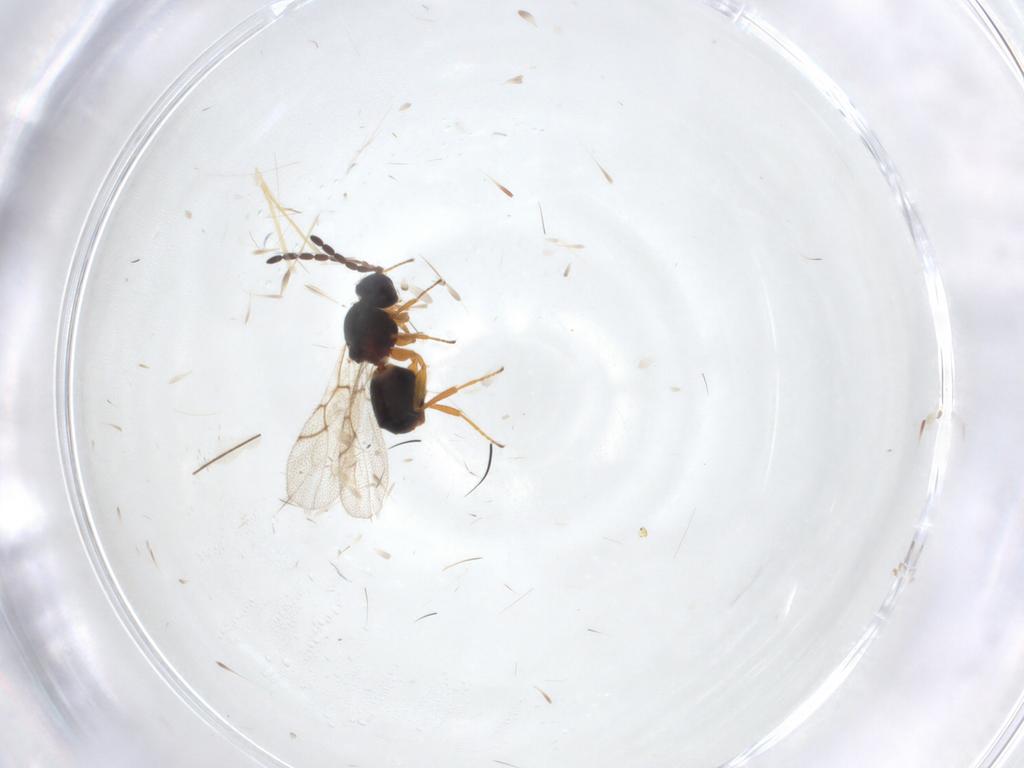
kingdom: Animalia
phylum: Arthropoda
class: Insecta
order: Hymenoptera
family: Figitidae
